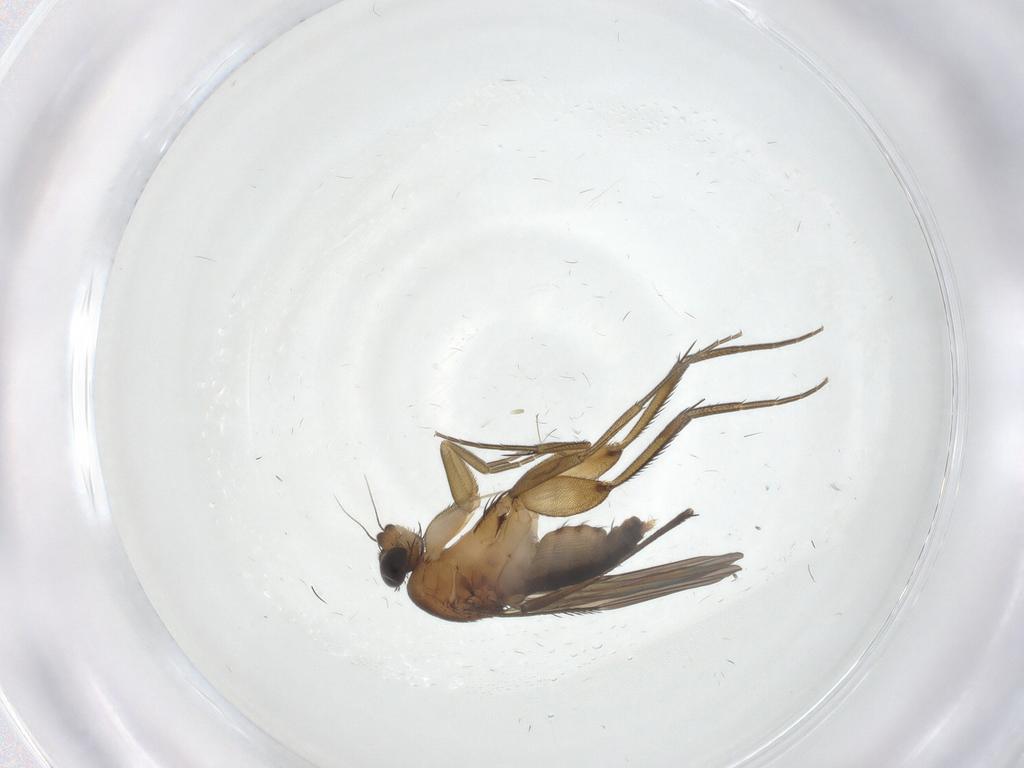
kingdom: Animalia
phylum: Arthropoda
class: Insecta
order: Diptera
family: Phoridae
